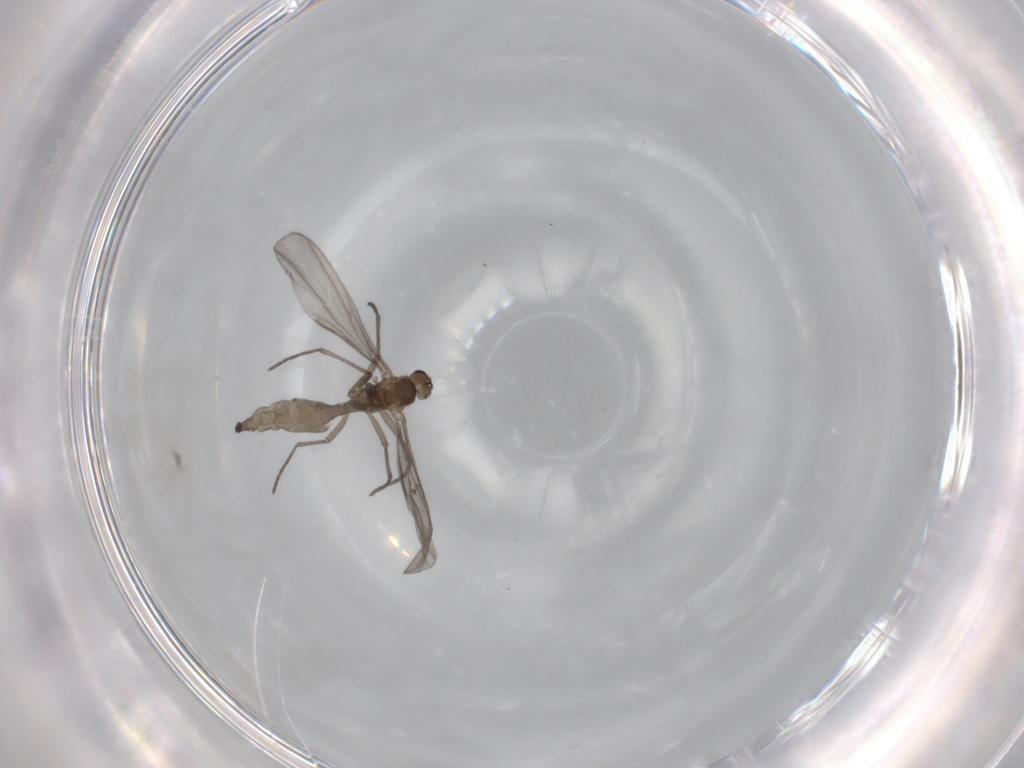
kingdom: Animalia
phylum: Arthropoda
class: Insecta
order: Diptera
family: Sciaridae
